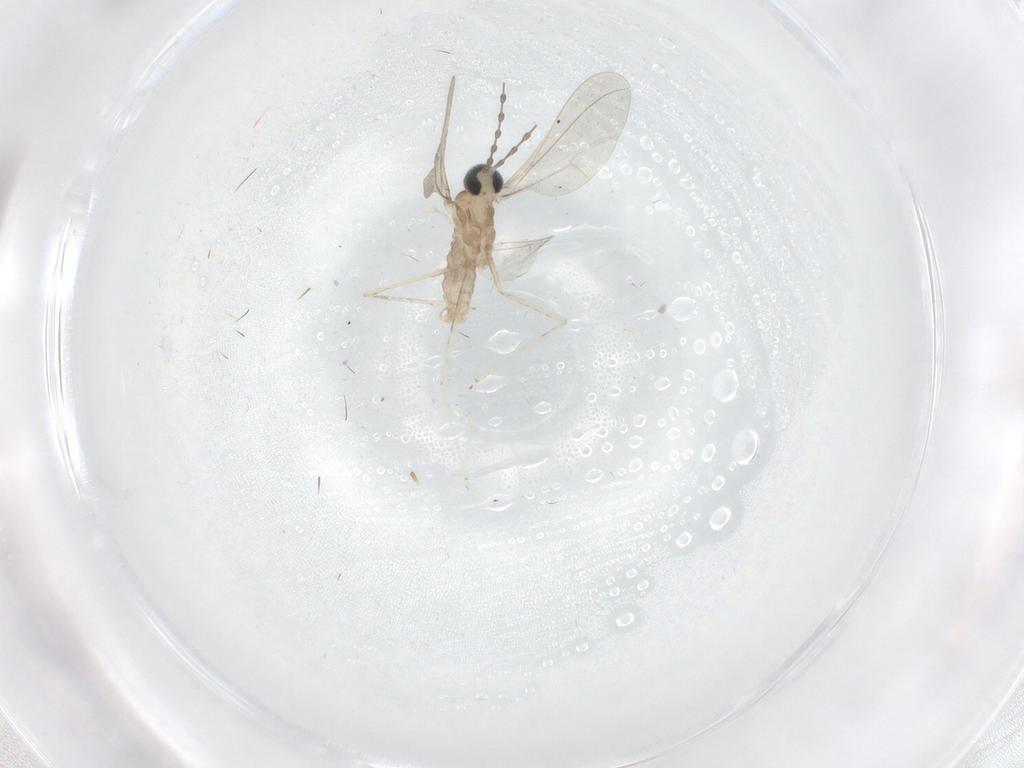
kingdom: Animalia
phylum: Arthropoda
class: Insecta
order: Diptera
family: Cecidomyiidae
